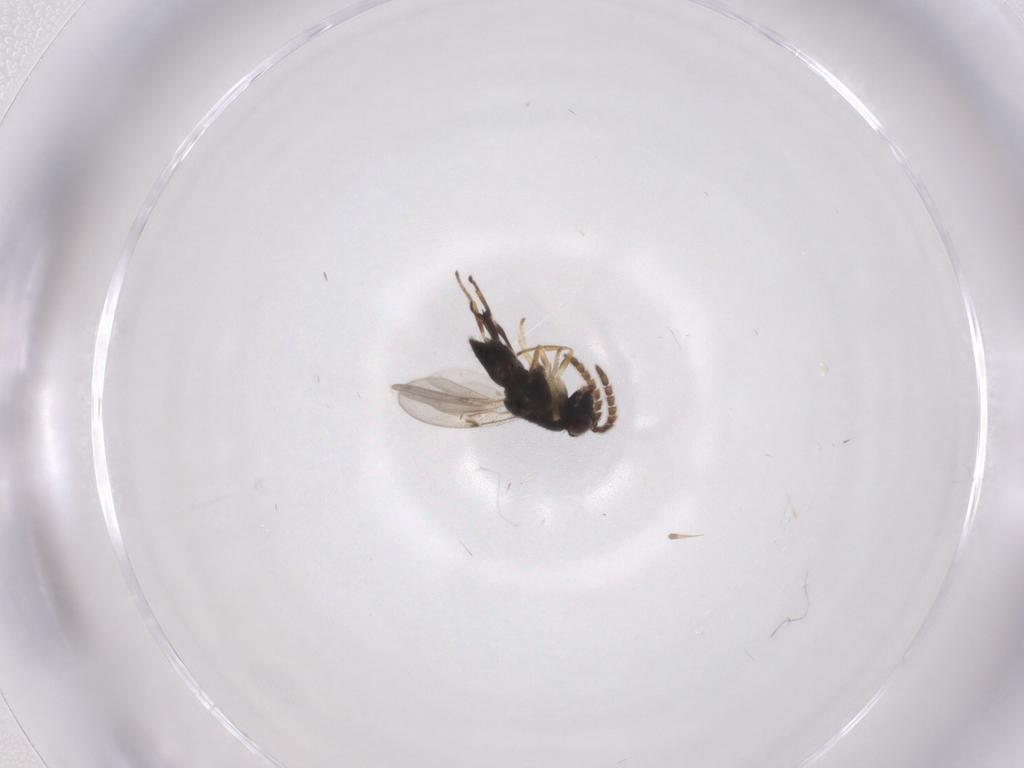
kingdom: Animalia
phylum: Arthropoda
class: Insecta
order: Hymenoptera
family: Encyrtidae
